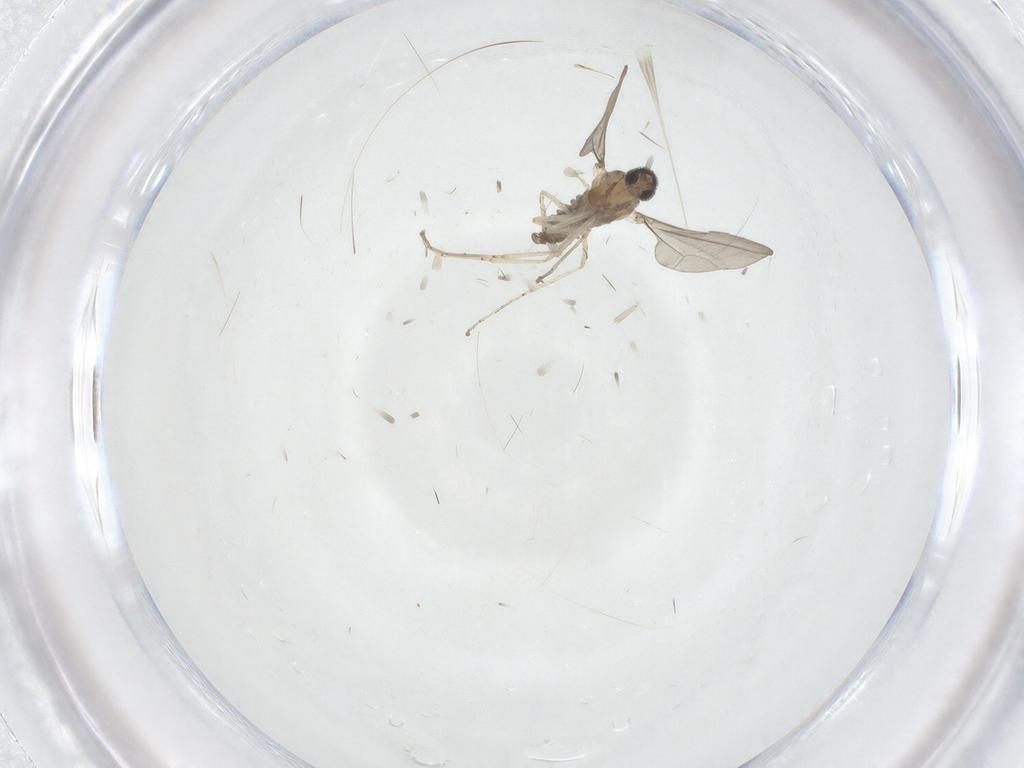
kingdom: Animalia
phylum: Arthropoda
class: Insecta
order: Diptera
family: Cecidomyiidae
